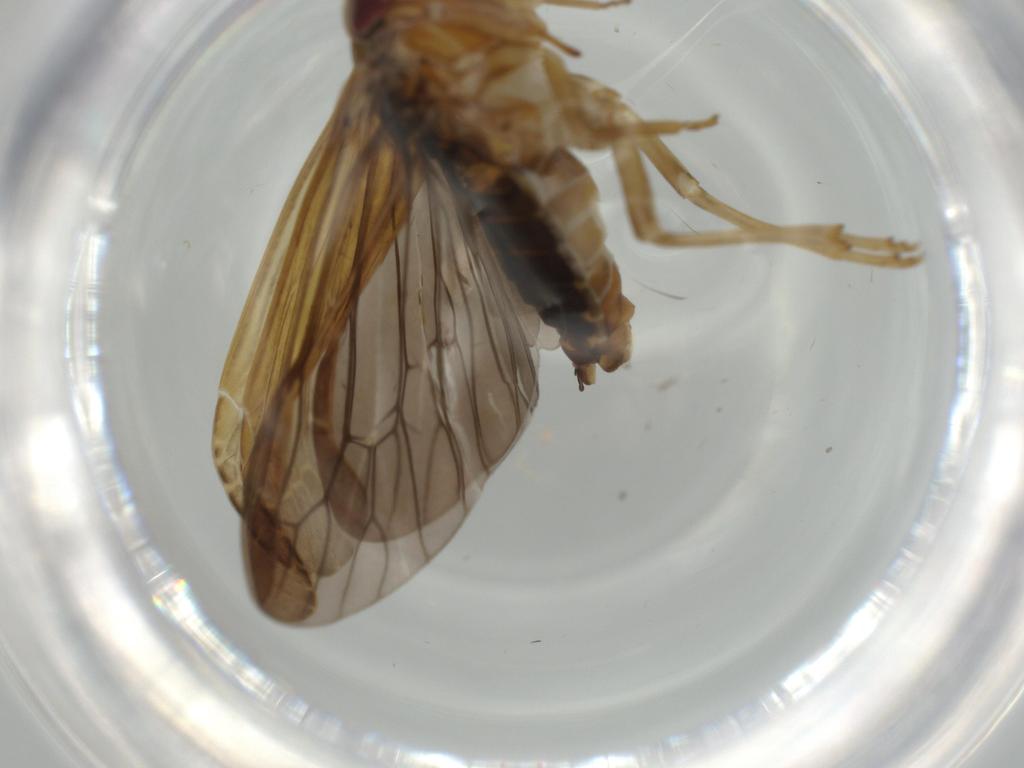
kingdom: Animalia
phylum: Arthropoda
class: Insecta
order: Hemiptera
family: Achilidae
